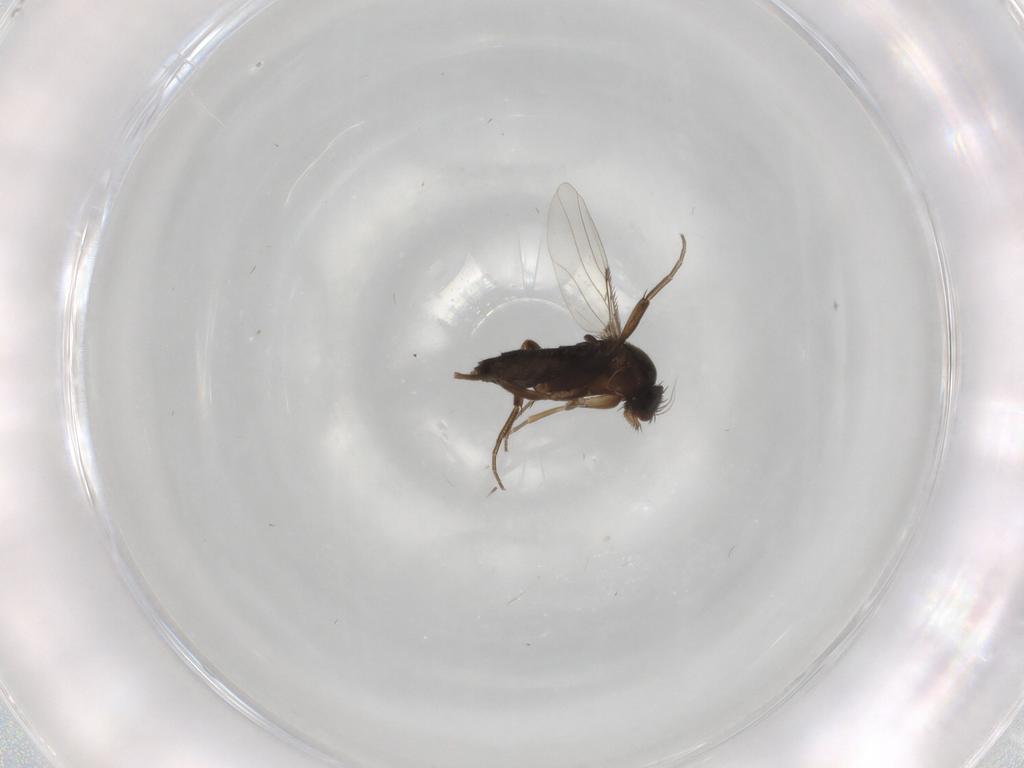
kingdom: Animalia
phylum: Arthropoda
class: Insecta
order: Diptera
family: Phoridae
